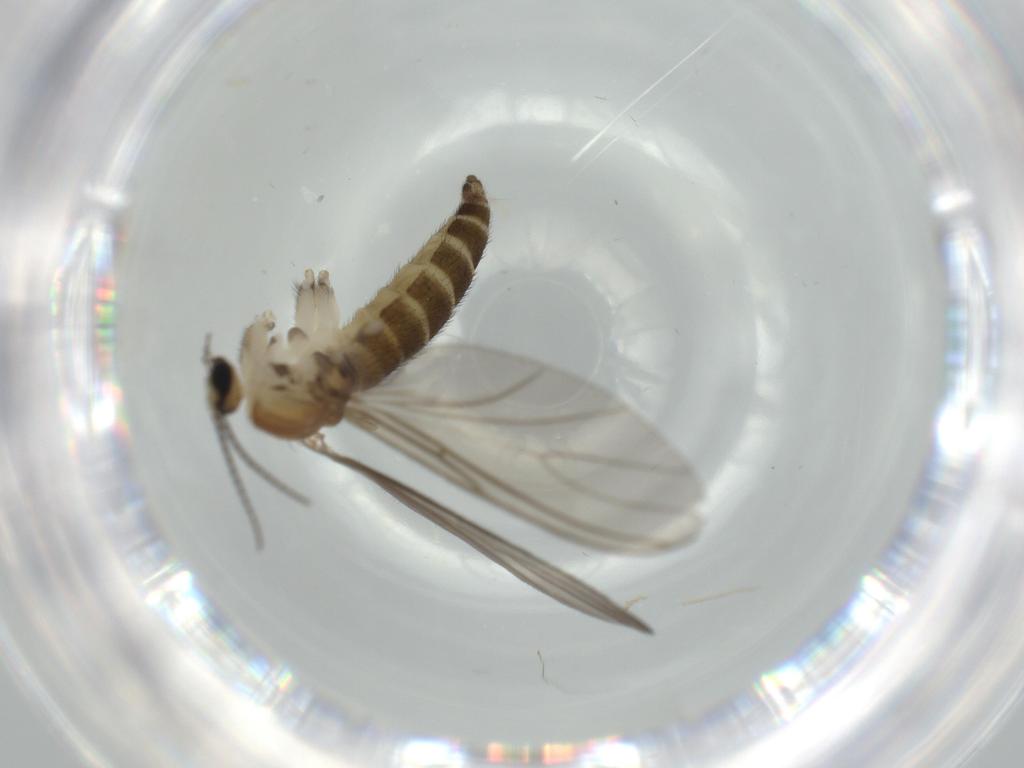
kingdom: Animalia
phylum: Arthropoda
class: Insecta
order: Diptera
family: Sciaridae
